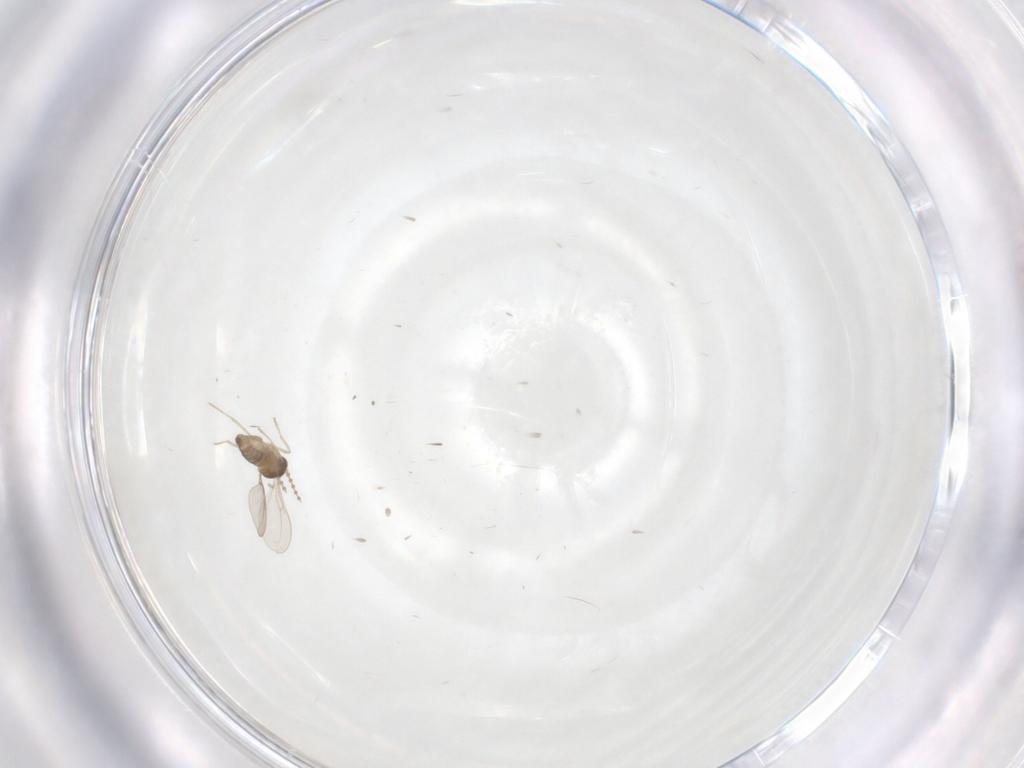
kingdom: Animalia
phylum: Arthropoda
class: Insecta
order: Diptera
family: Cecidomyiidae
